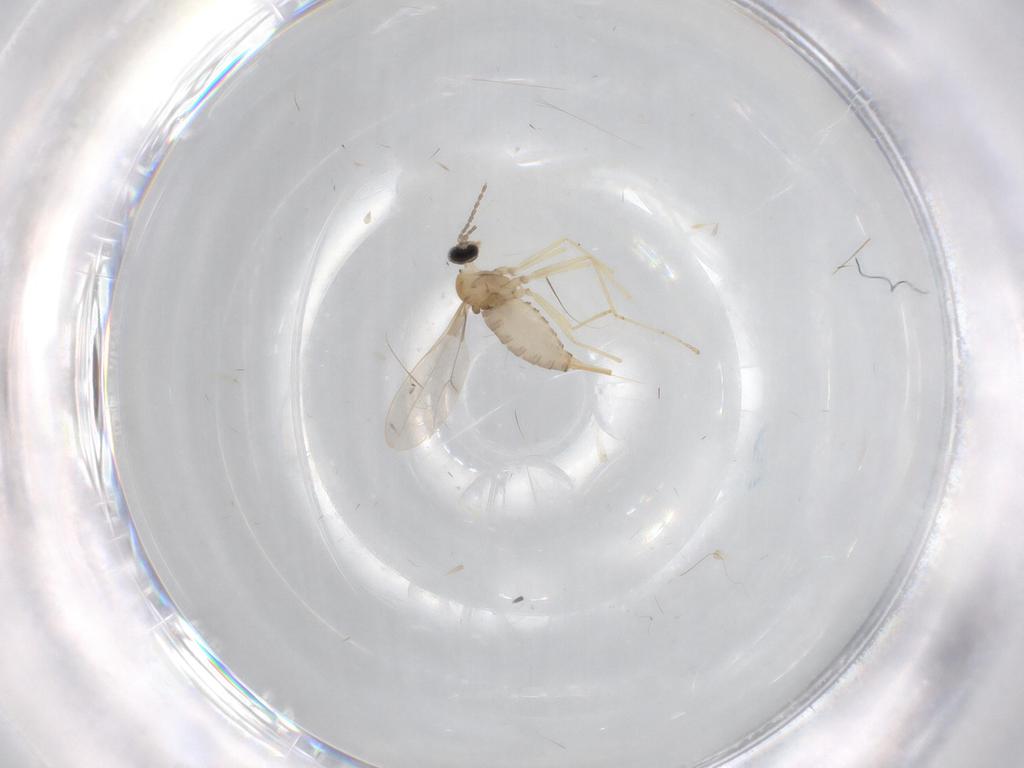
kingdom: Animalia
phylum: Arthropoda
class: Insecta
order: Diptera
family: Cecidomyiidae
